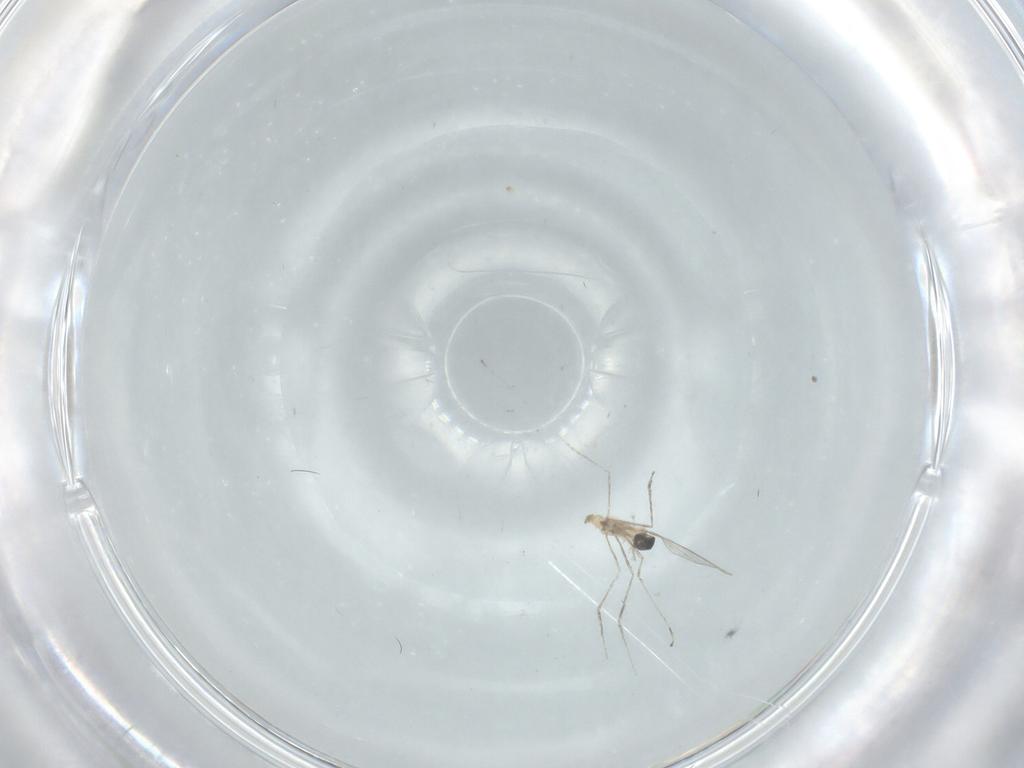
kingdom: Animalia
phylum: Arthropoda
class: Insecta
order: Diptera
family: Cecidomyiidae
